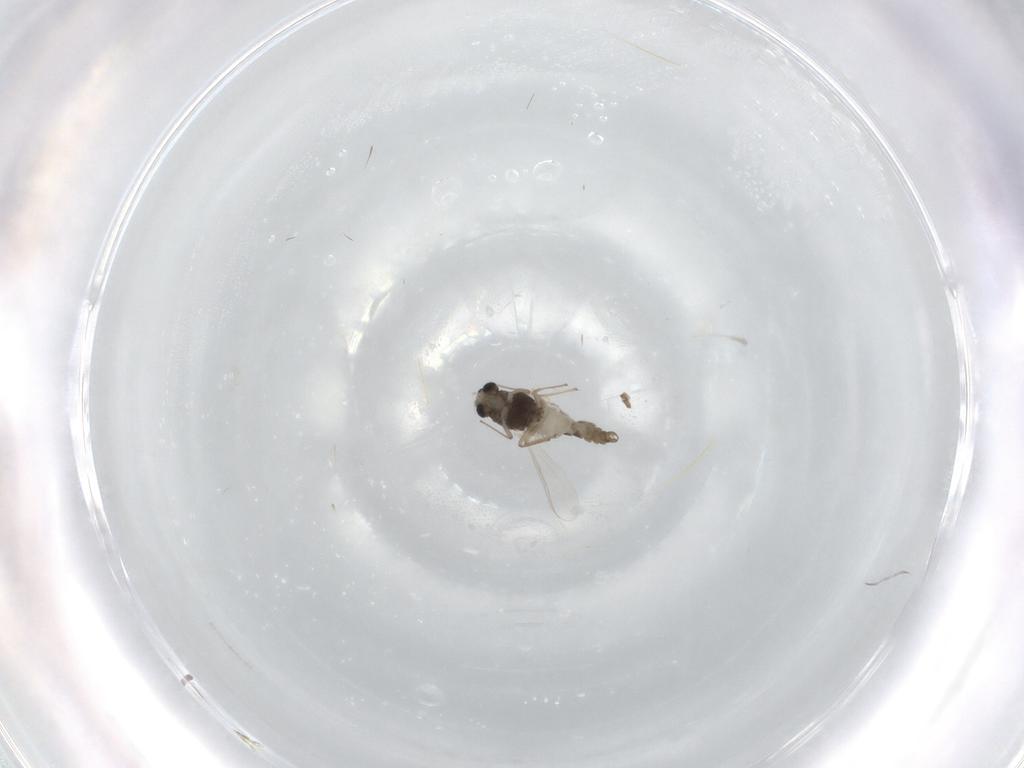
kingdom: Animalia
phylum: Arthropoda
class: Insecta
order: Diptera
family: Chironomidae
